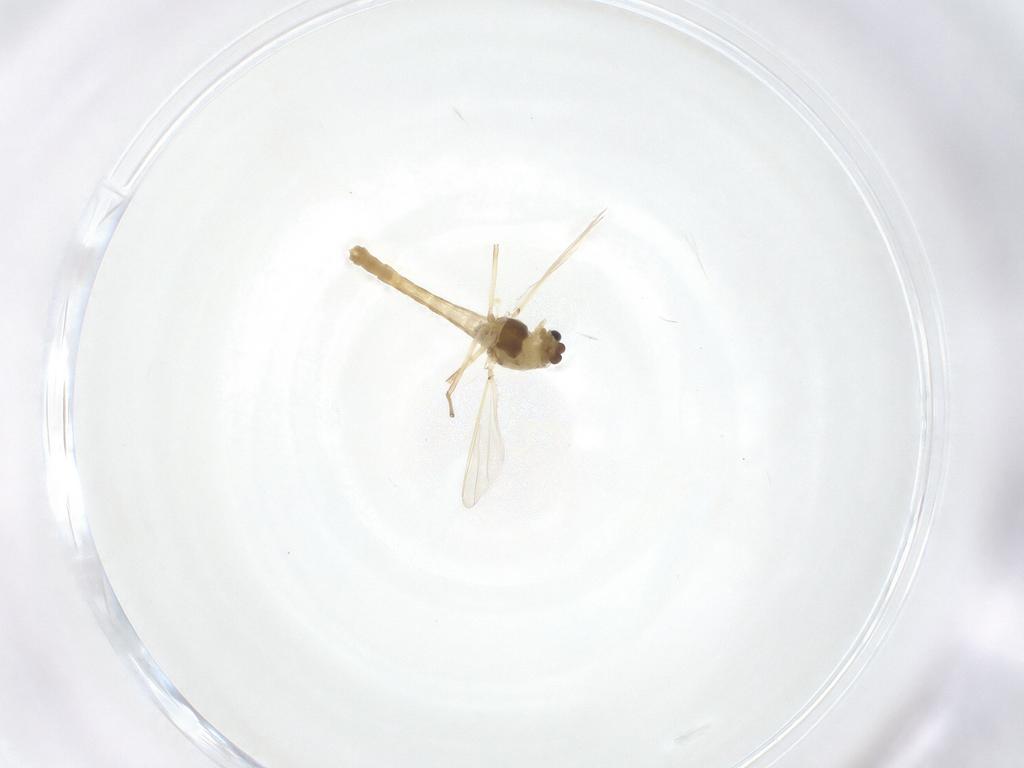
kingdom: Animalia
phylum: Arthropoda
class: Insecta
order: Diptera
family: Chironomidae
